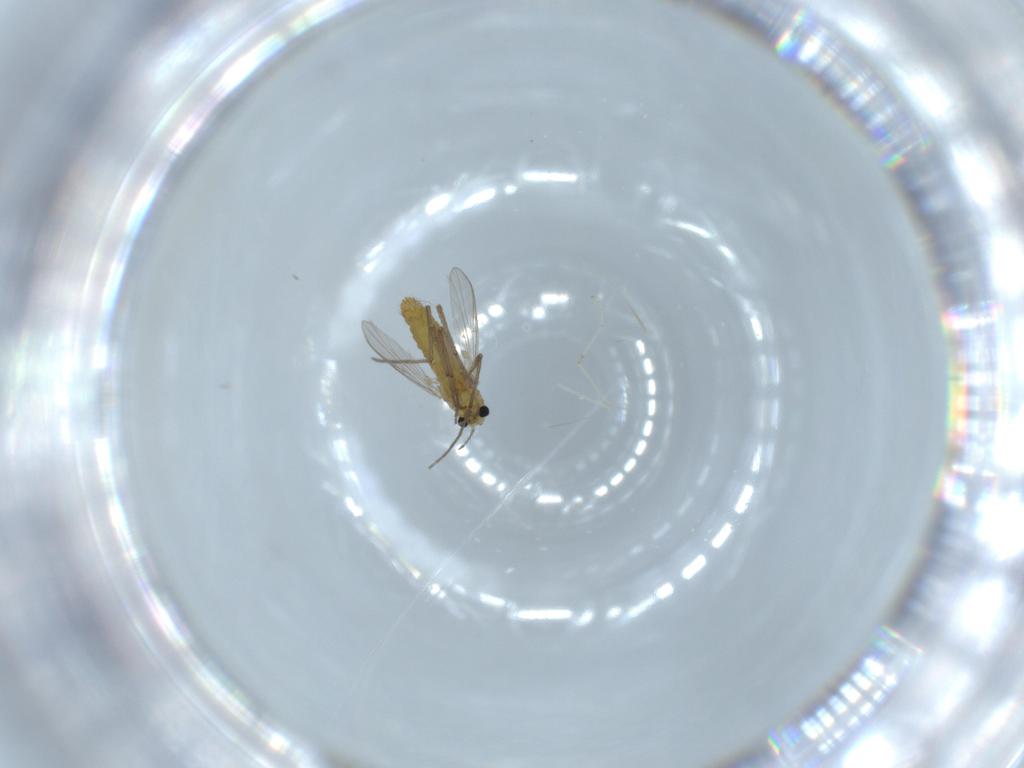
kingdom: Animalia
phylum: Arthropoda
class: Insecta
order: Diptera
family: Chironomidae
